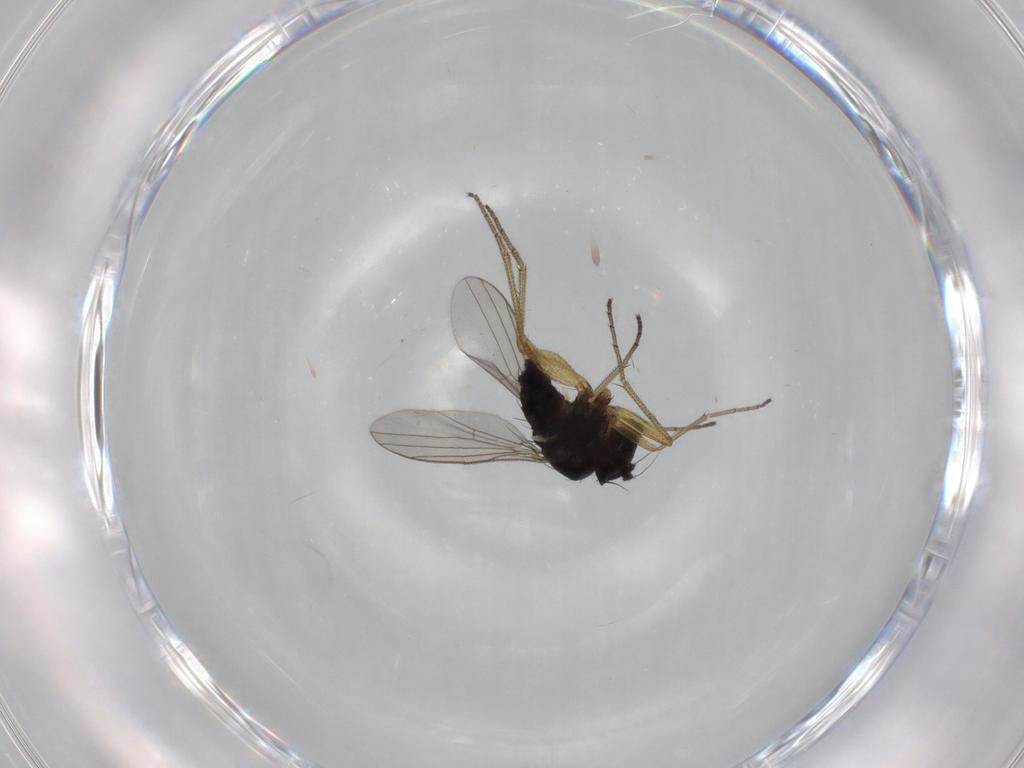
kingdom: Animalia
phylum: Arthropoda
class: Insecta
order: Diptera
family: Dolichopodidae
